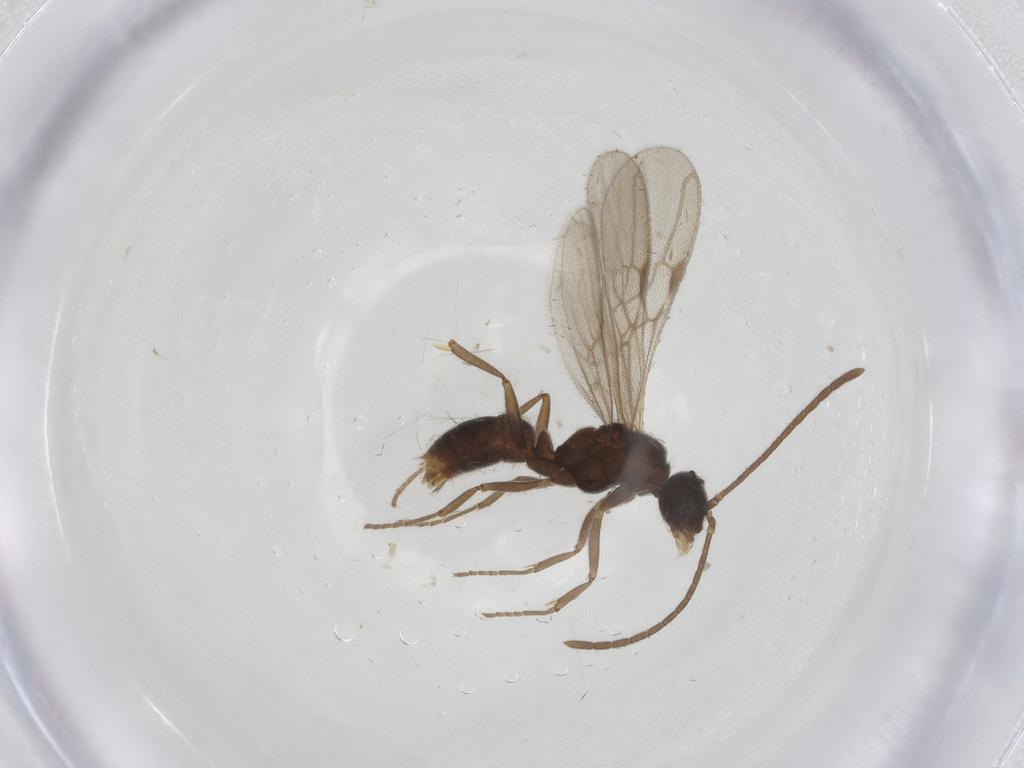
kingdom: Animalia
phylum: Arthropoda
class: Insecta
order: Hymenoptera
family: Formicidae
